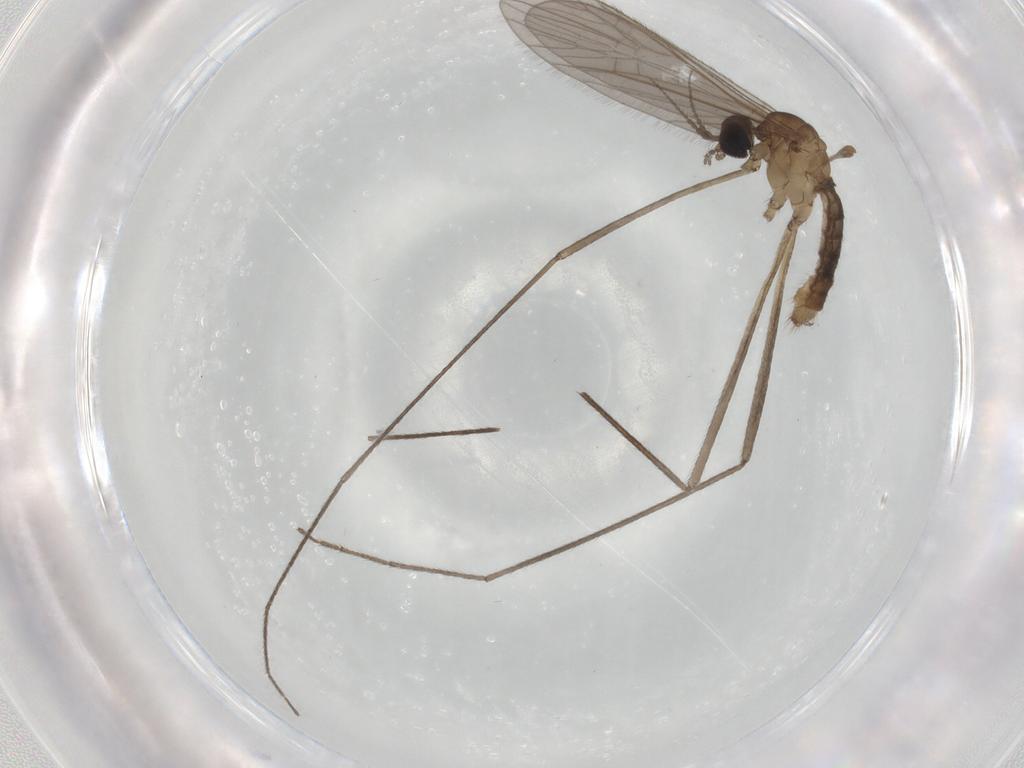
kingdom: Animalia
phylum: Arthropoda
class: Insecta
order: Diptera
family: Limoniidae
